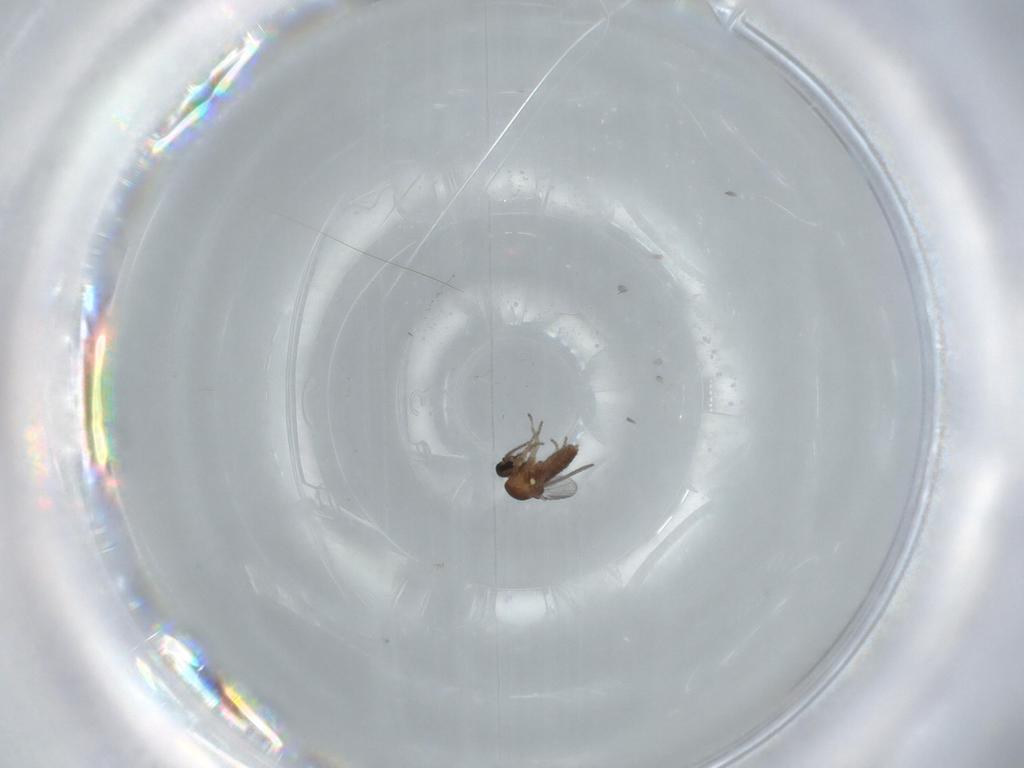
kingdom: Animalia
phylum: Arthropoda
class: Insecta
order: Diptera
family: Ceratopogonidae
